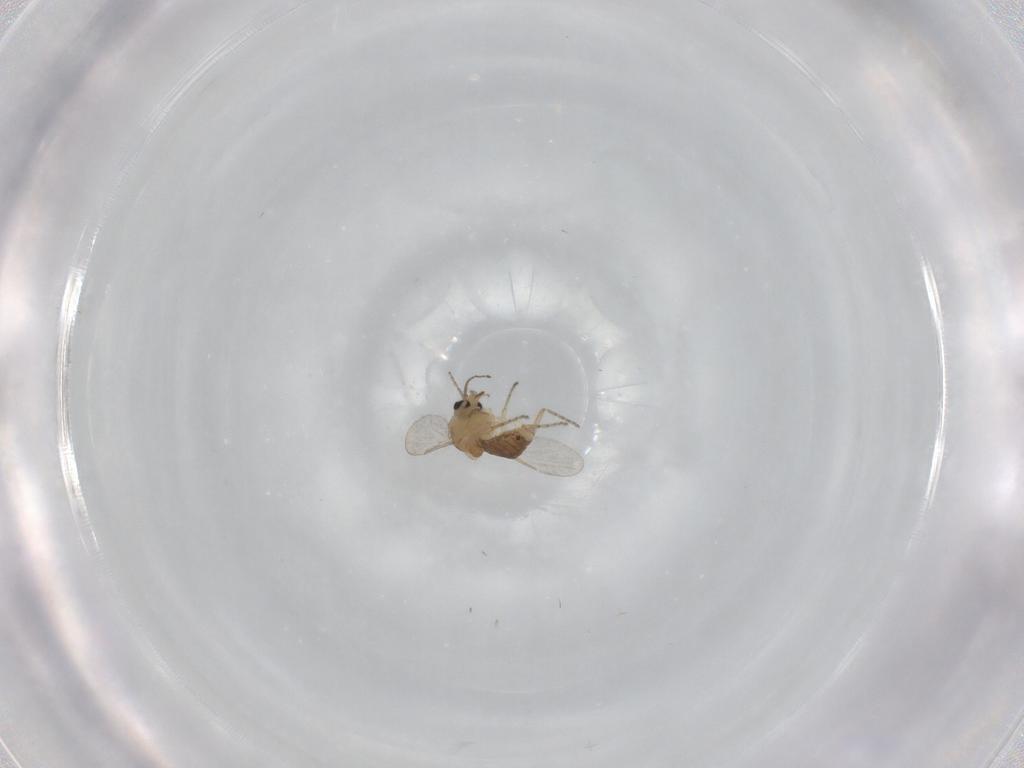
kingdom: Animalia
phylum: Arthropoda
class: Insecta
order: Diptera
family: Ceratopogonidae
